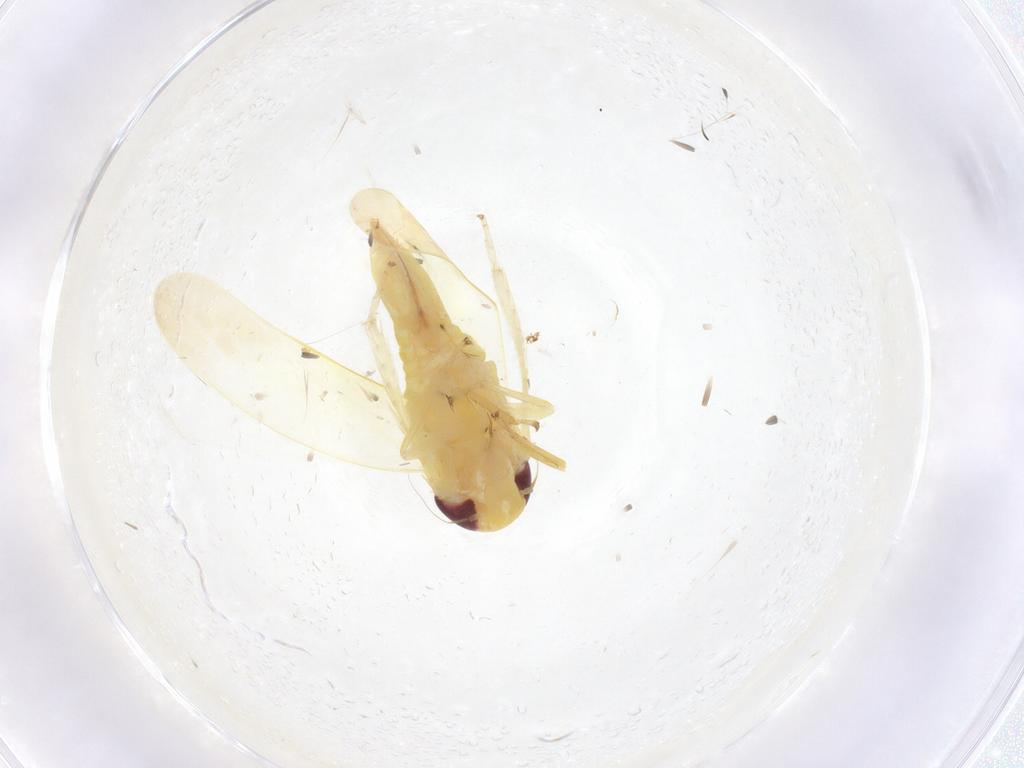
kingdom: Animalia
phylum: Arthropoda
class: Insecta
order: Hemiptera
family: Cicadellidae
